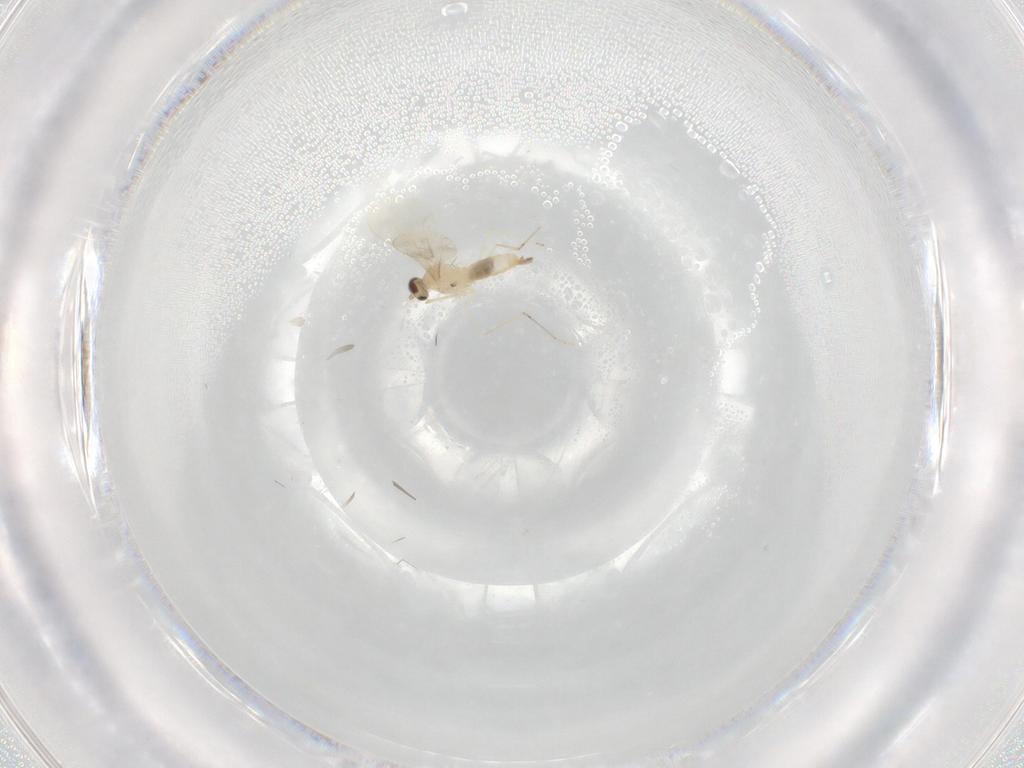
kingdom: Animalia
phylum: Arthropoda
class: Insecta
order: Diptera
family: Cecidomyiidae
